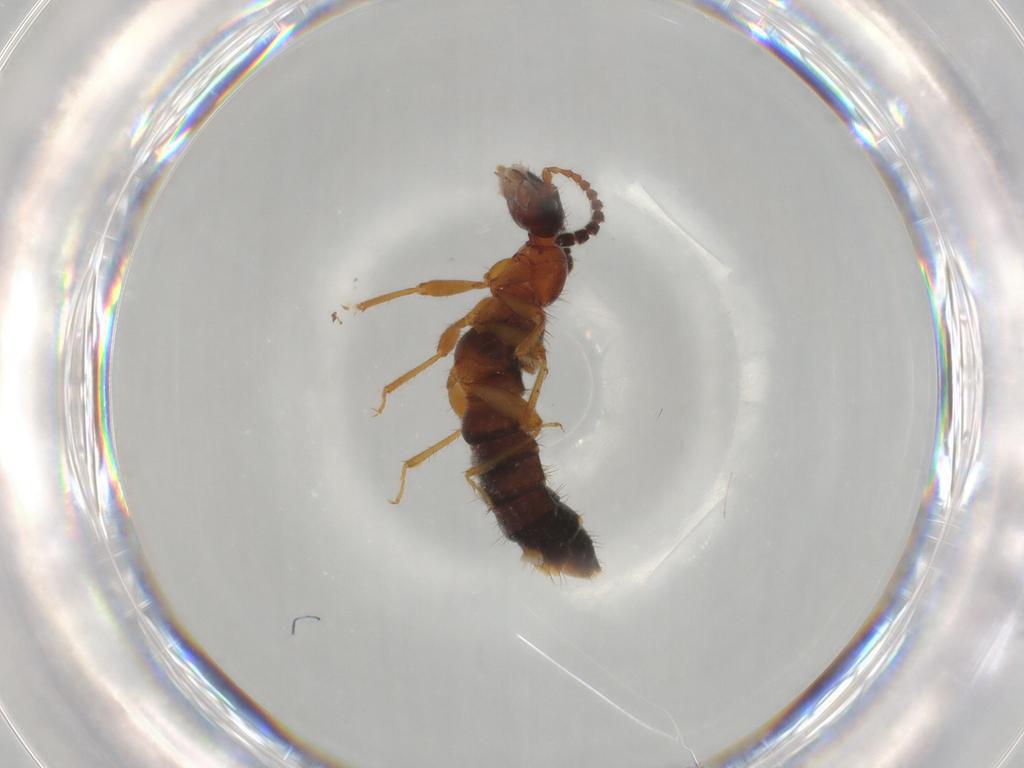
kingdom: Animalia
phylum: Arthropoda
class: Insecta
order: Coleoptera
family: Staphylinidae
